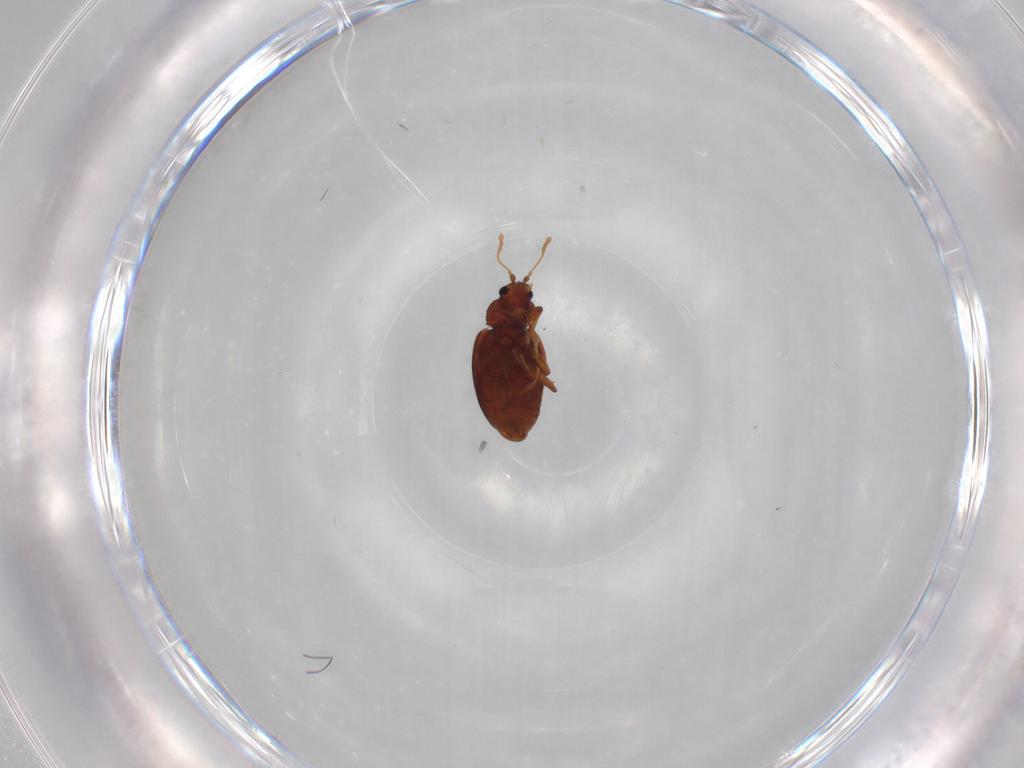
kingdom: Animalia
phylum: Arthropoda
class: Insecta
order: Coleoptera
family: Latridiidae
